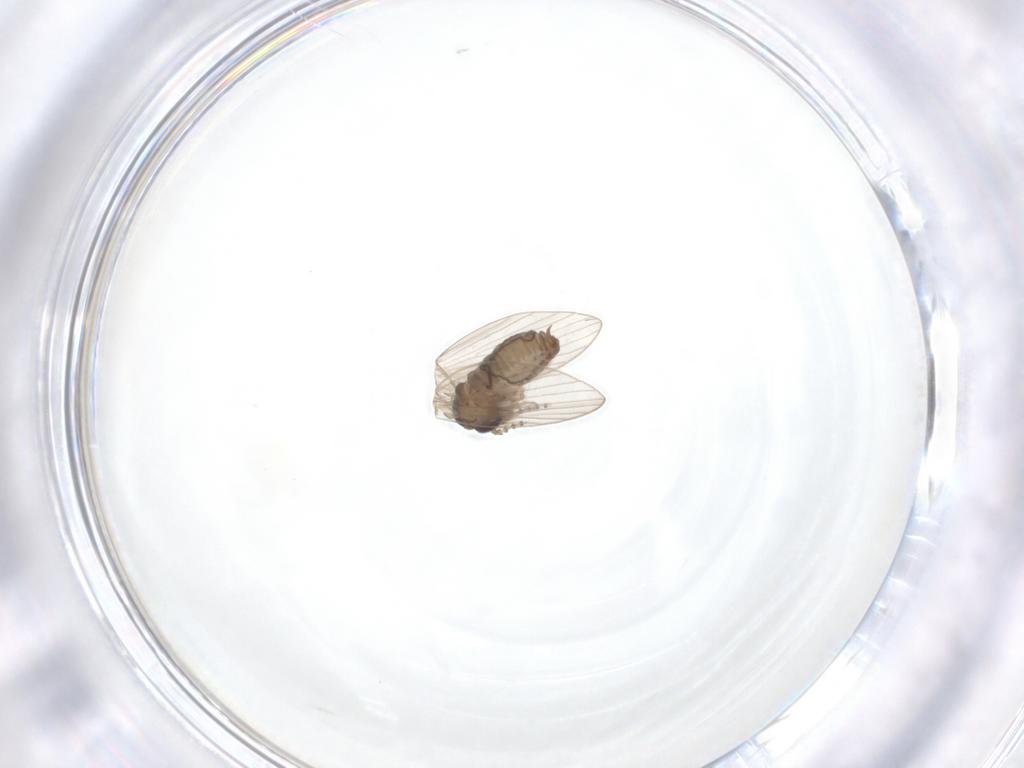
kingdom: Animalia
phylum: Arthropoda
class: Insecta
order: Diptera
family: Psychodidae
